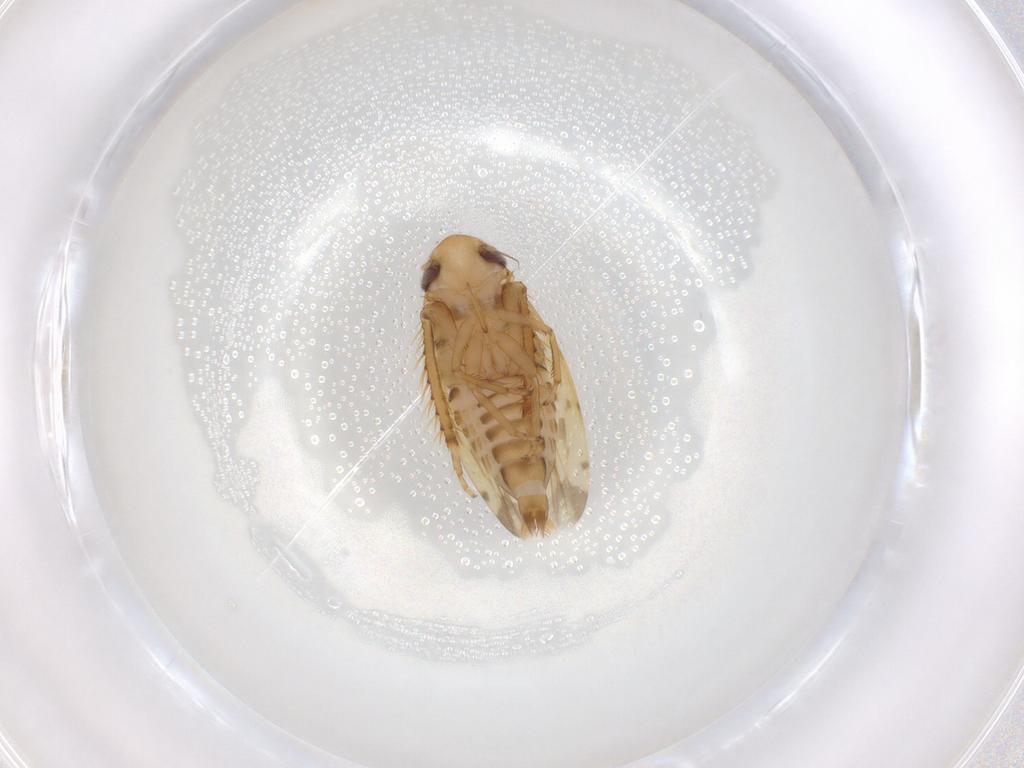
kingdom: Animalia
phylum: Arthropoda
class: Insecta
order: Hemiptera
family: Cicadellidae
